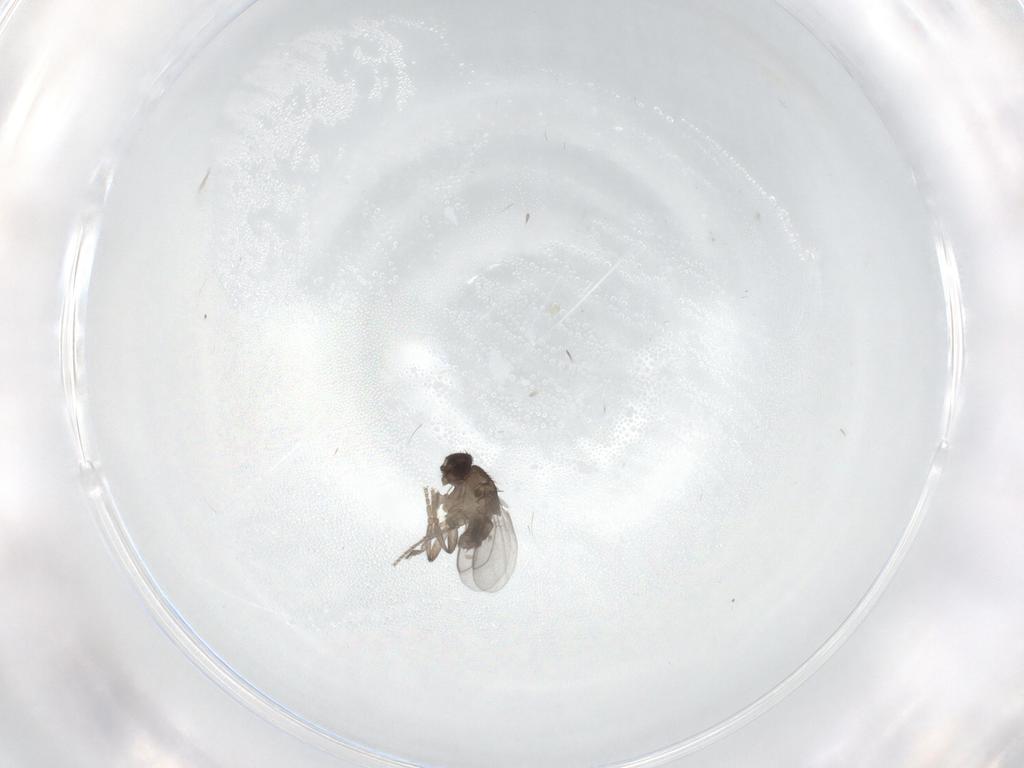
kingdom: Animalia
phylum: Arthropoda
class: Insecta
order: Diptera
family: Sphaeroceridae
